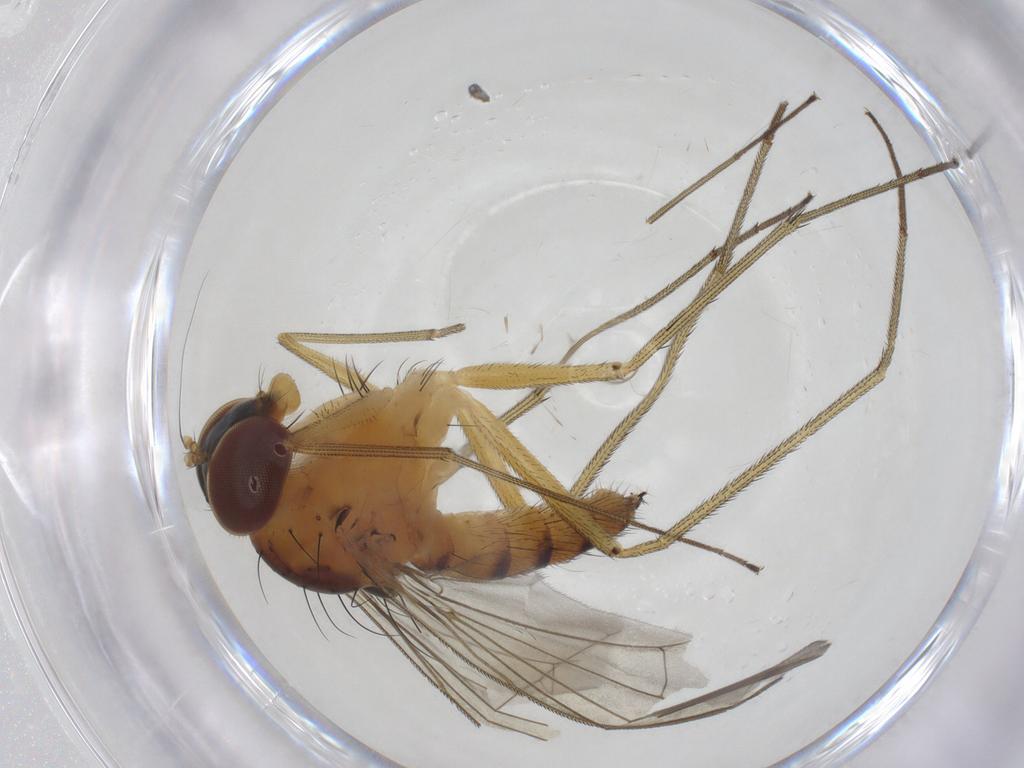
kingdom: Animalia
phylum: Arthropoda
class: Insecta
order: Diptera
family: Dolichopodidae
